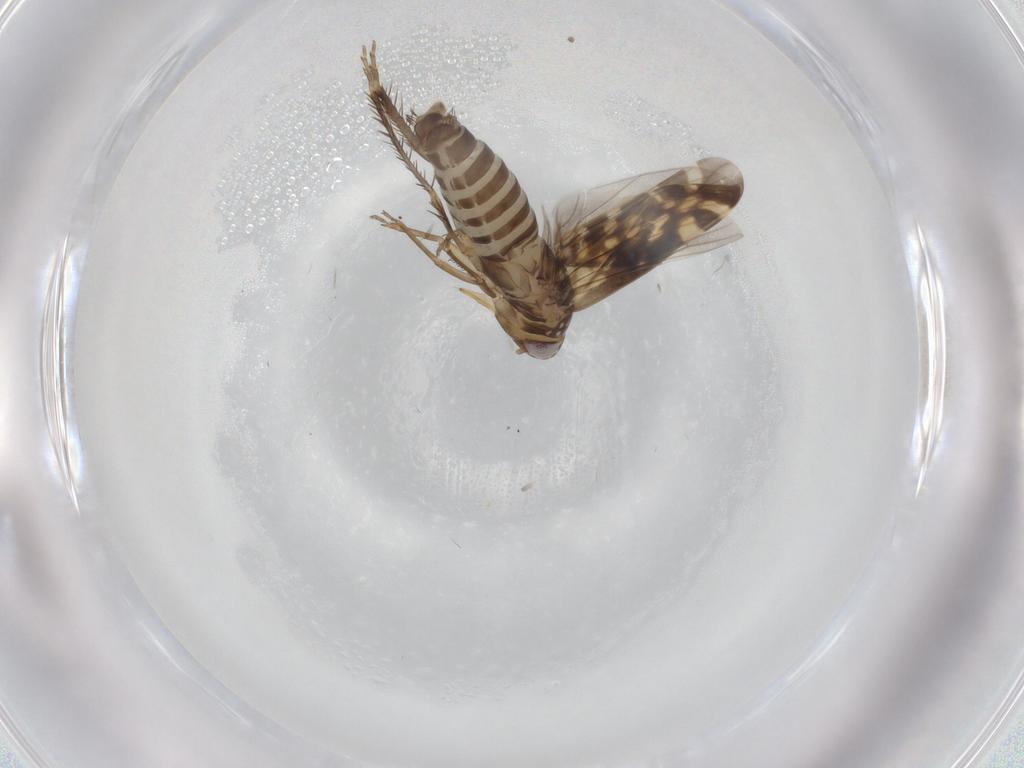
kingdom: Animalia
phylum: Arthropoda
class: Insecta
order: Hemiptera
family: Cicadellidae
